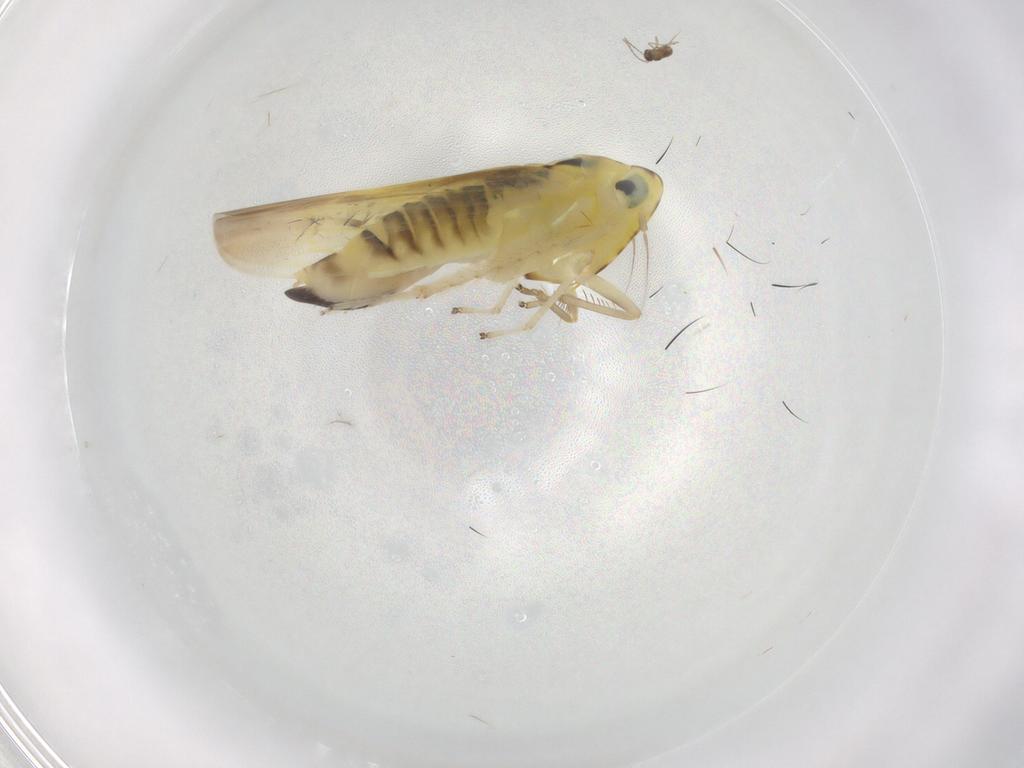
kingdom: Animalia
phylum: Arthropoda
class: Insecta
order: Hemiptera
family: Cicadellidae
